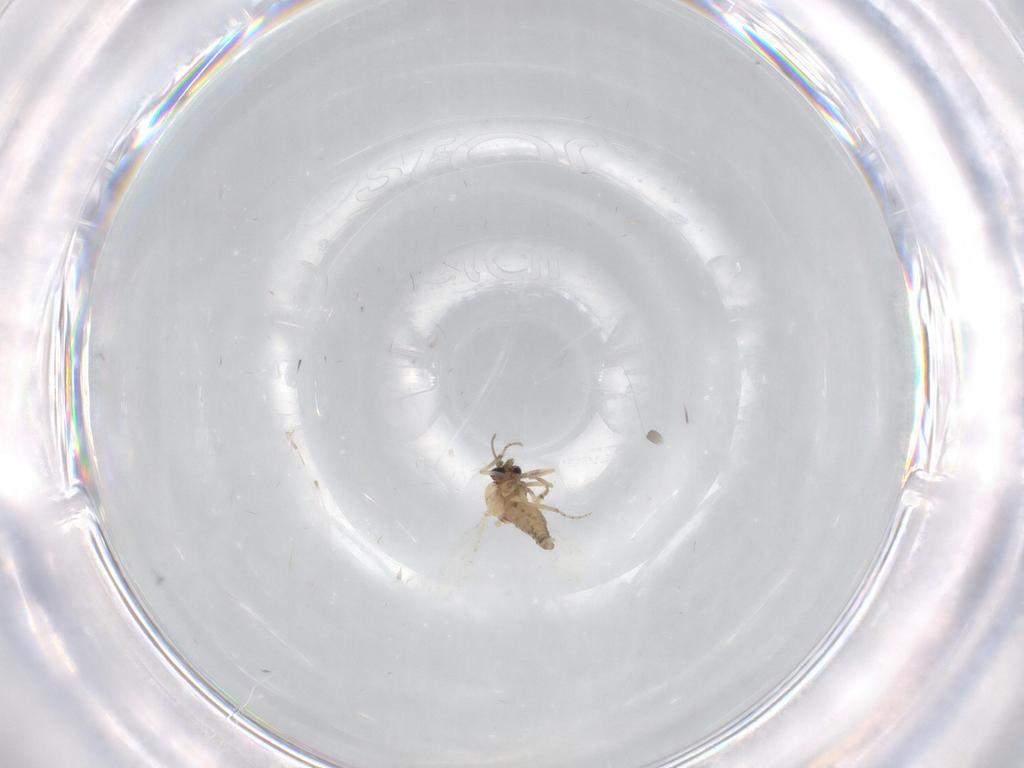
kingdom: Animalia
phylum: Arthropoda
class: Insecta
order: Diptera
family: Ceratopogonidae
